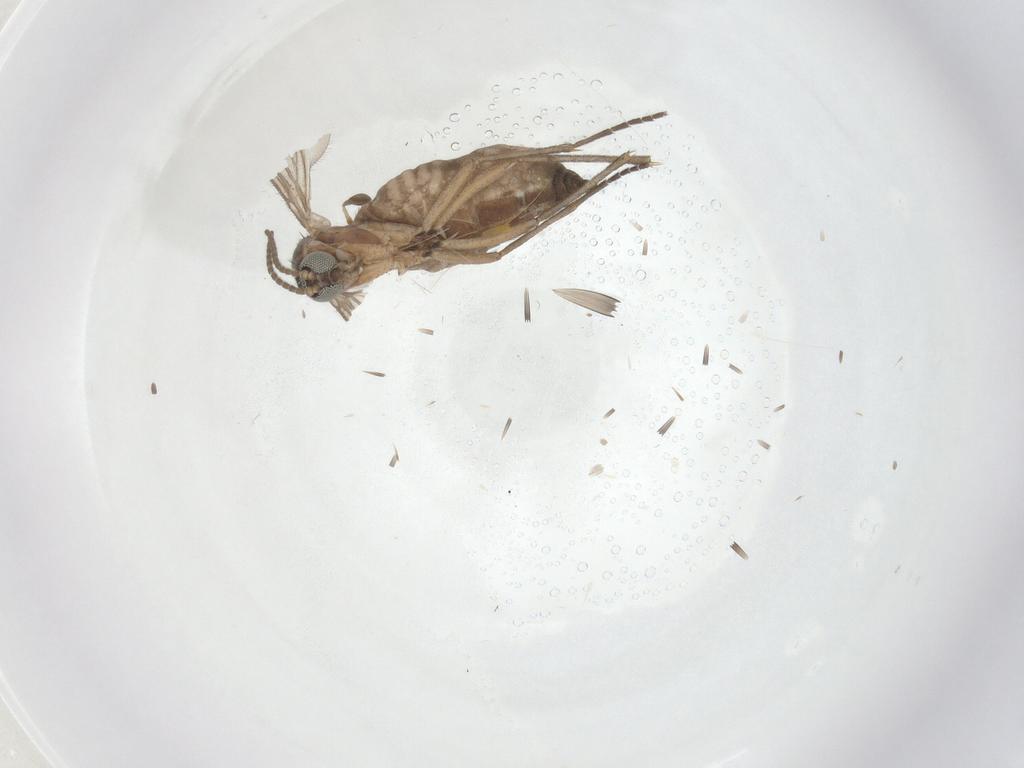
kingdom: Animalia
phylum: Arthropoda
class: Insecta
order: Diptera
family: Sciaridae
